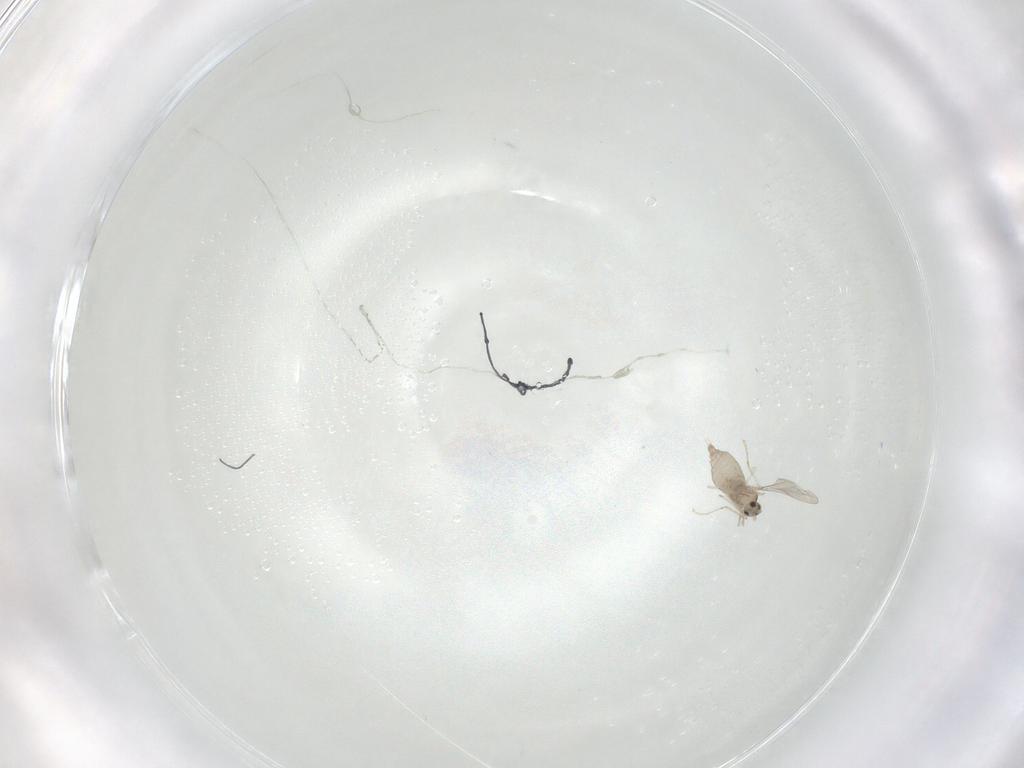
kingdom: Animalia
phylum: Arthropoda
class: Insecta
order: Diptera
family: Cecidomyiidae
